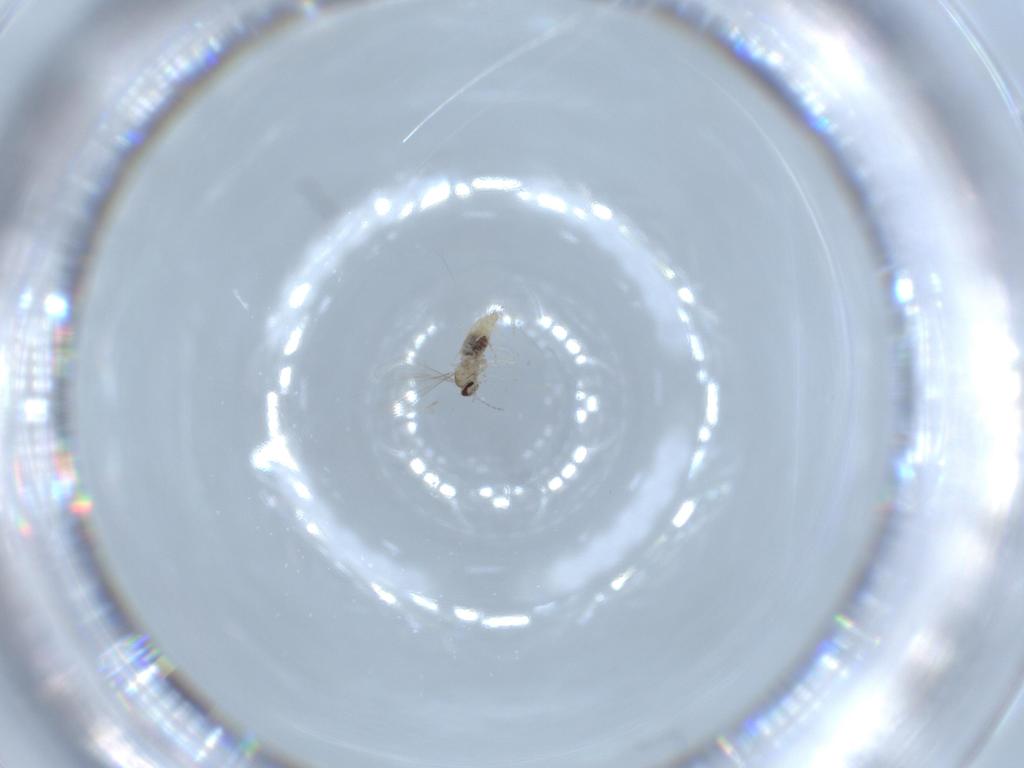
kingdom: Animalia
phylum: Arthropoda
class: Insecta
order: Diptera
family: Cecidomyiidae
